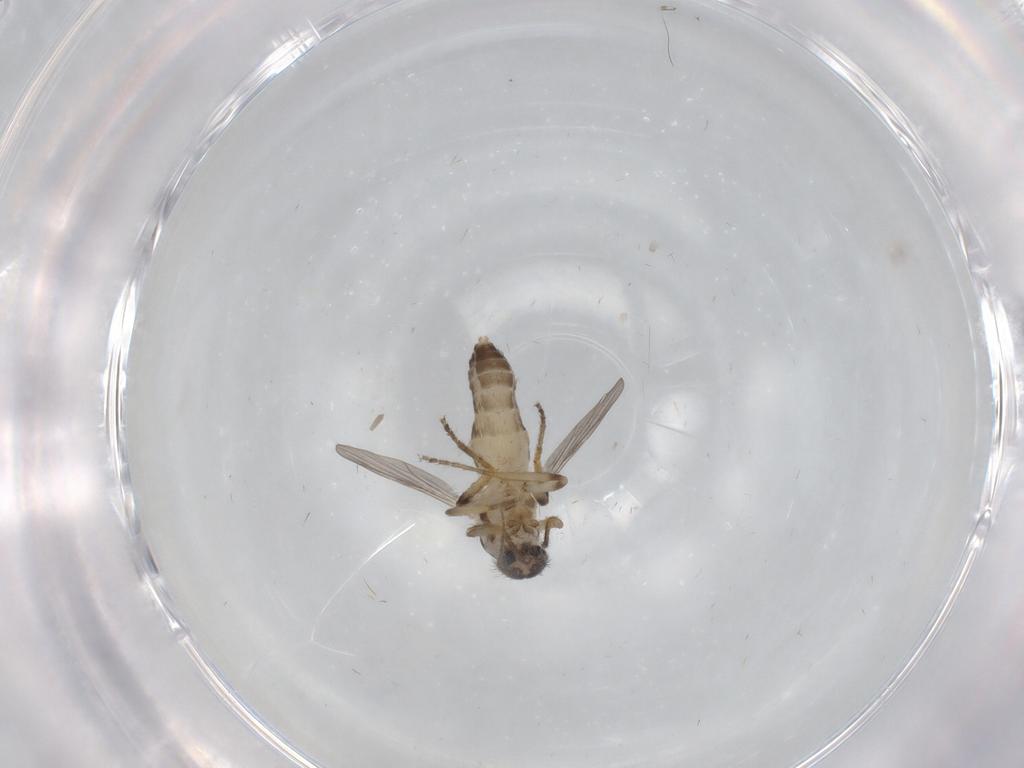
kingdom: Animalia
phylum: Arthropoda
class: Insecta
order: Diptera
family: Ceratopogonidae
